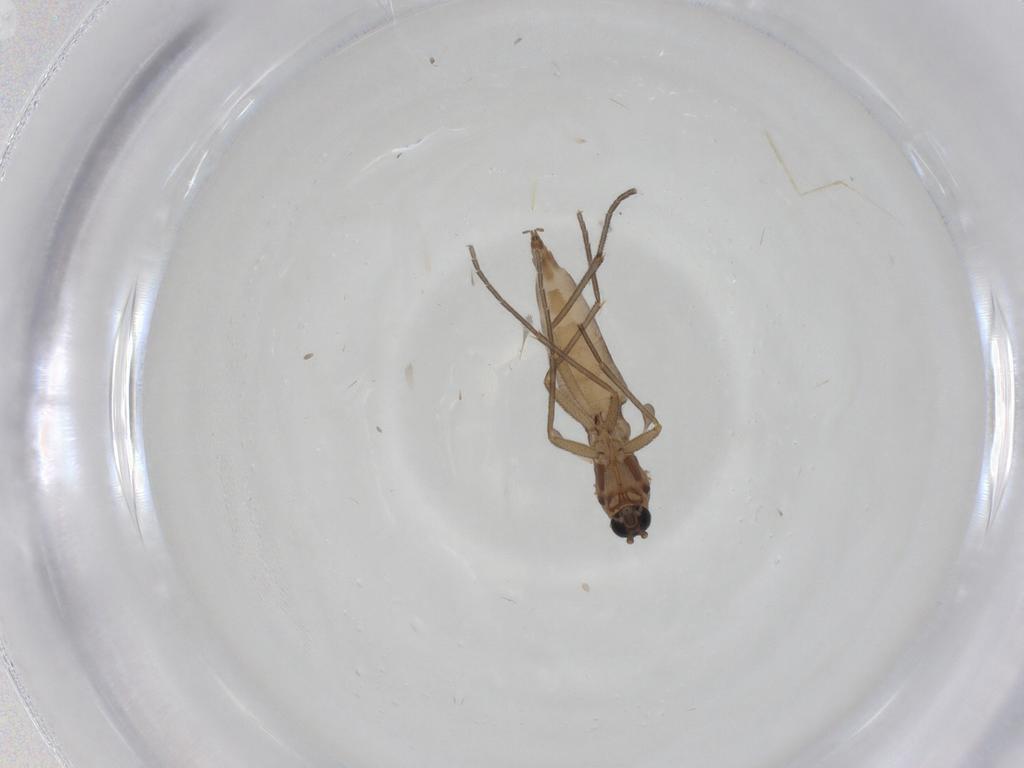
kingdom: Animalia
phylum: Arthropoda
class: Insecta
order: Diptera
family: Sciaridae
